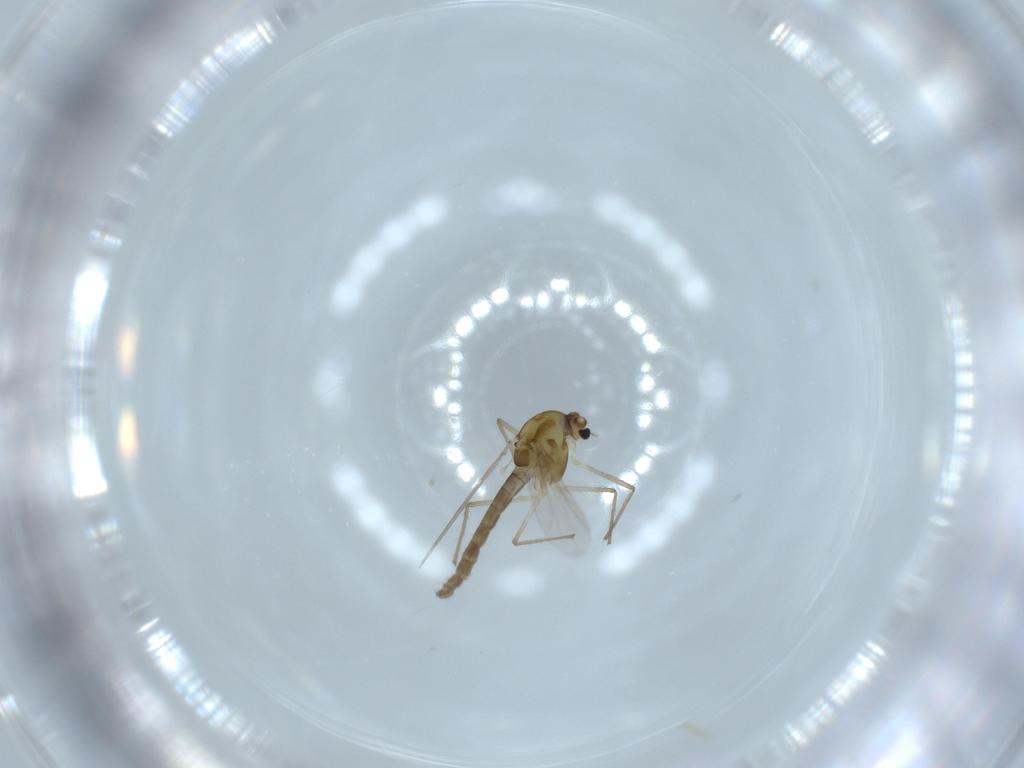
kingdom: Animalia
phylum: Arthropoda
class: Insecta
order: Diptera
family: Chironomidae
